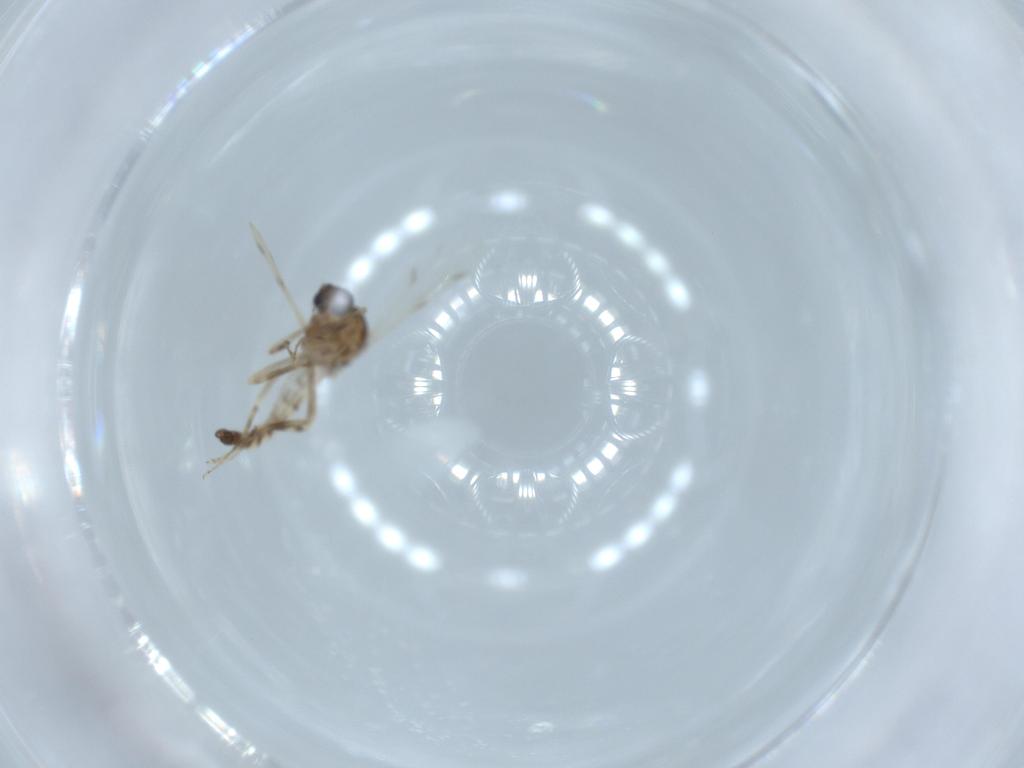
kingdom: Animalia
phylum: Arthropoda
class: Insecta
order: Diptera
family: Ceratopogonidae
